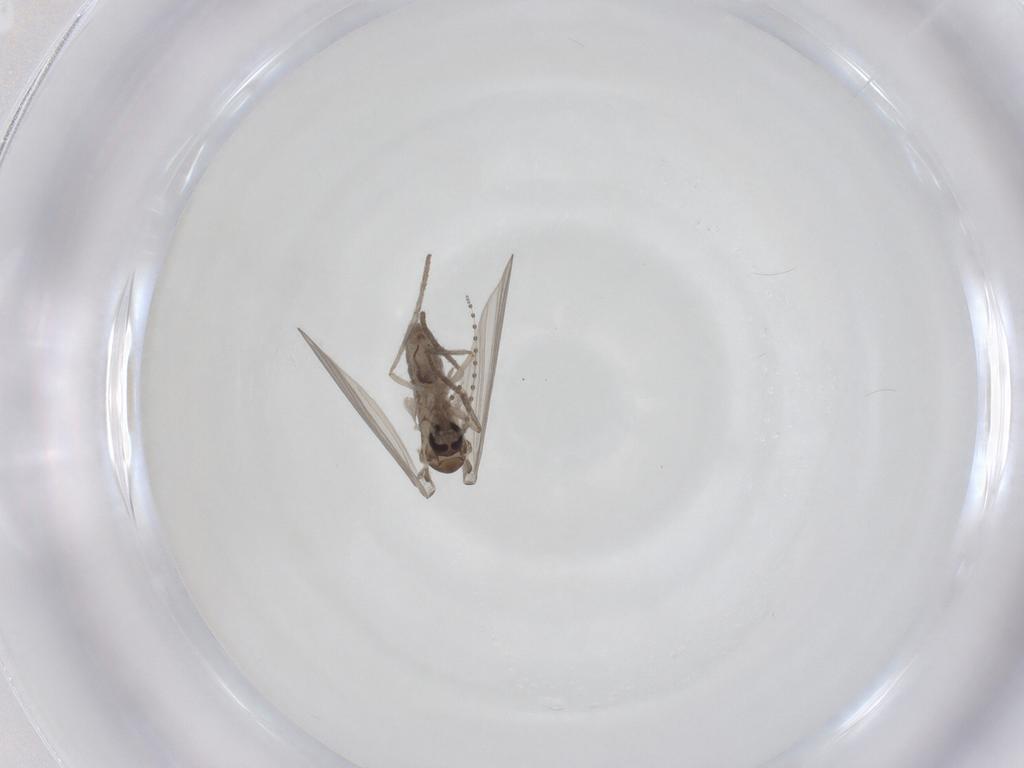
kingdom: Animalia
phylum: Arthropoda
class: Insecta
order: Diptera
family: Psychodidae
